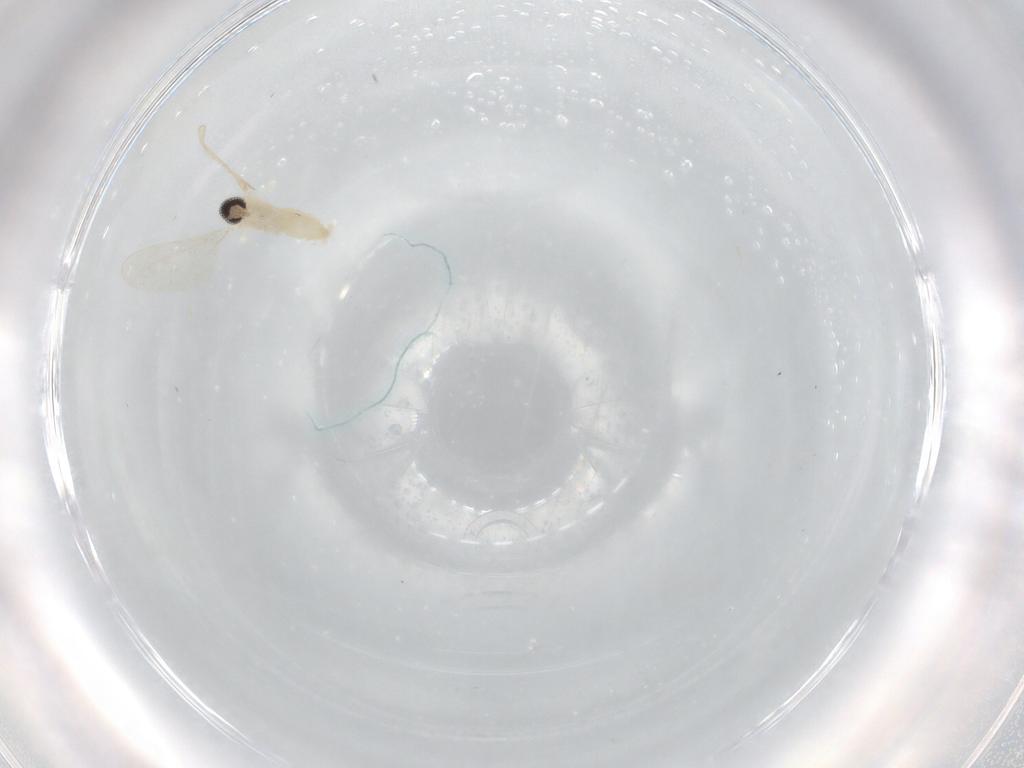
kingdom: Animalia
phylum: Arthropoda
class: Insecta
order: Diptera
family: Cecidomyiidae
